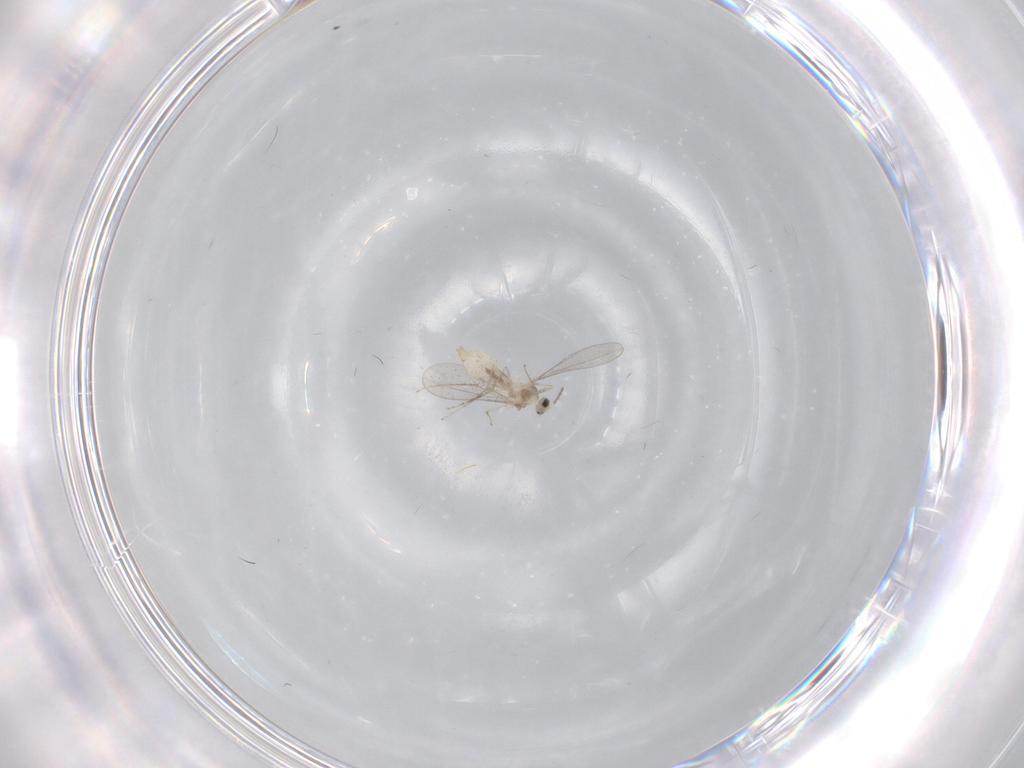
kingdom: Animalia
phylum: Arthropoda
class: Insecta
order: Diptera
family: Cecidomyiidae
